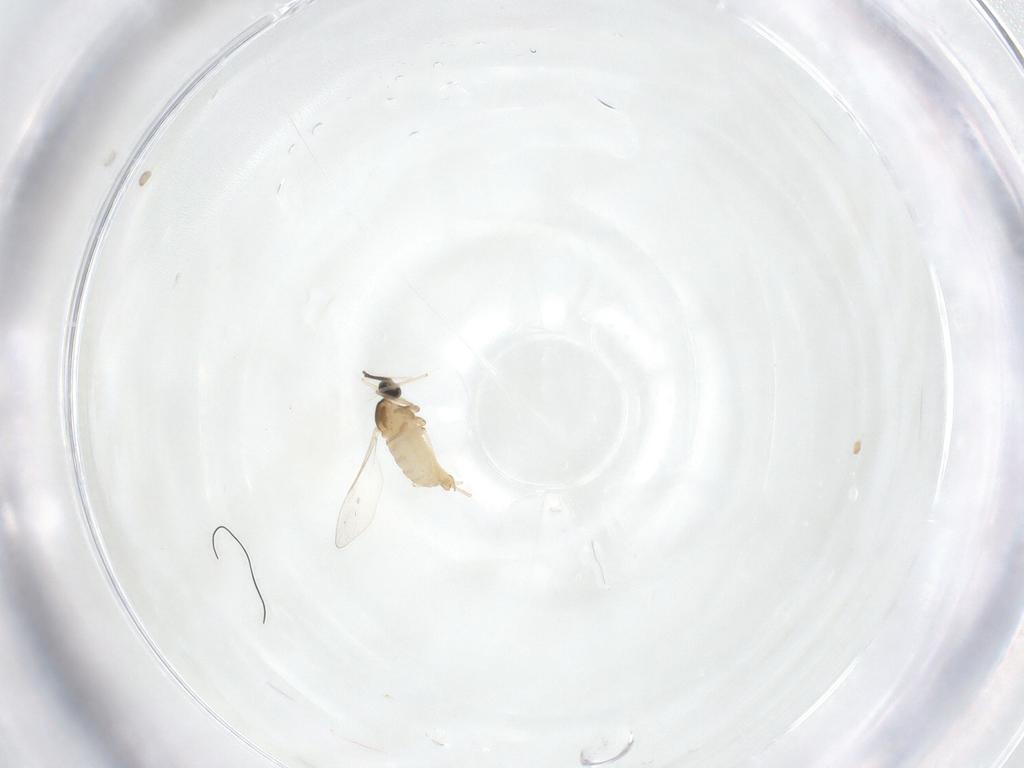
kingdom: Animalia
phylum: Arthropoda
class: Insecta
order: Diptera
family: Cecidomyiidae
